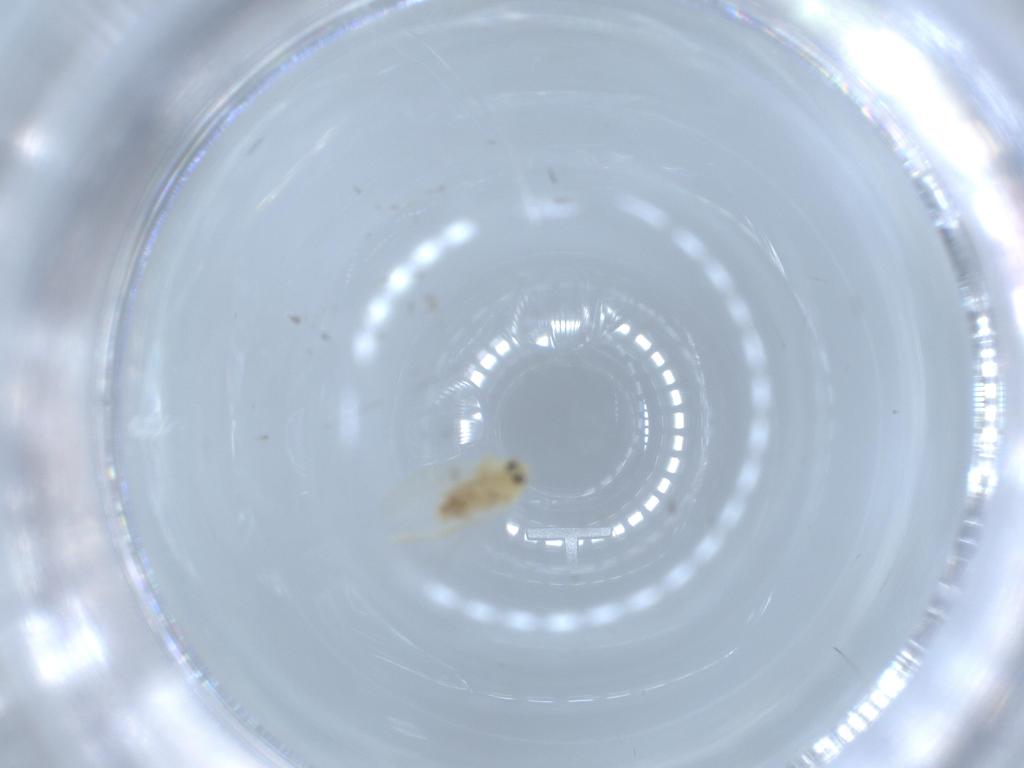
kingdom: Animalia
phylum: Arthropoda
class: Insecta
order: Hemiptera
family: Aleyrodidae
